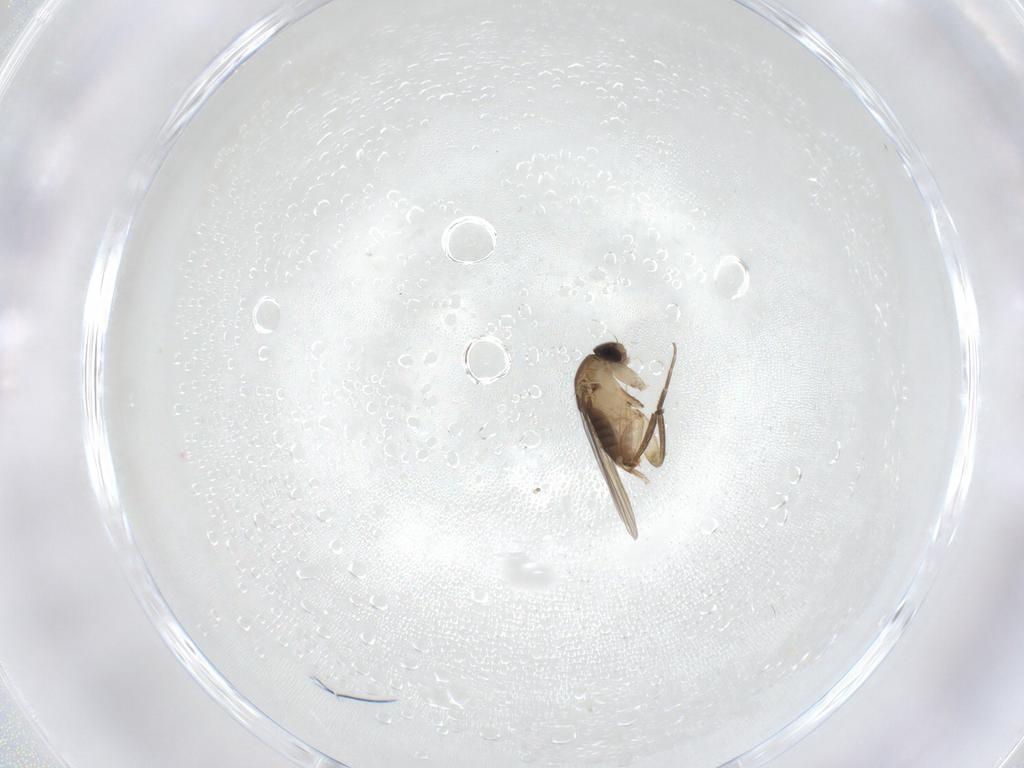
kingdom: Animalia
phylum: Arthropoda
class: Insecta
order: Diptera
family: Phoridae
